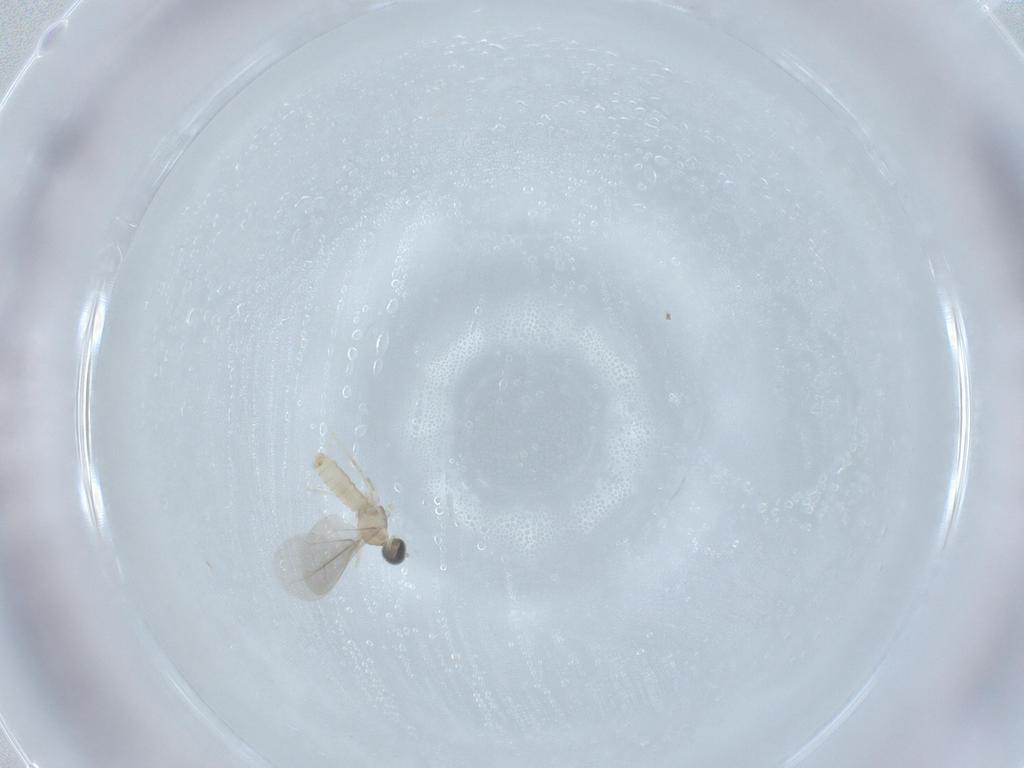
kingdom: Animalia
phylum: Arthropoda
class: Insecta
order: Diptera
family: Cecidomyiidae
